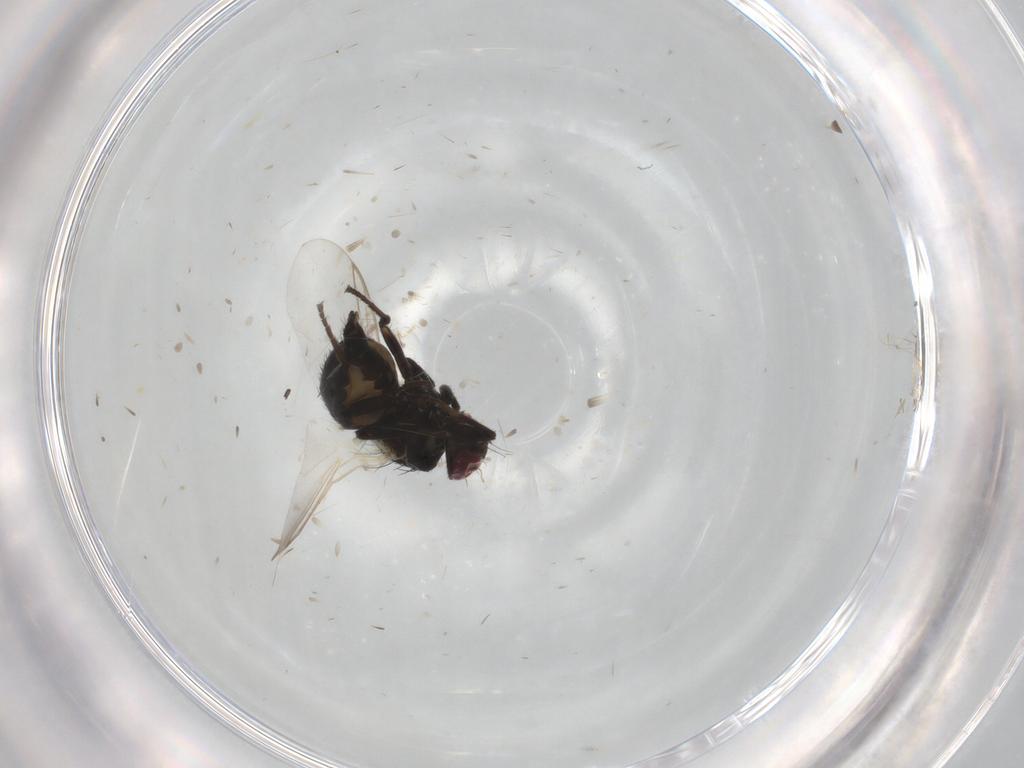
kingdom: Animalia
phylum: Arthropoda
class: Insecta
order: Diptera
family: Agromyzidae
